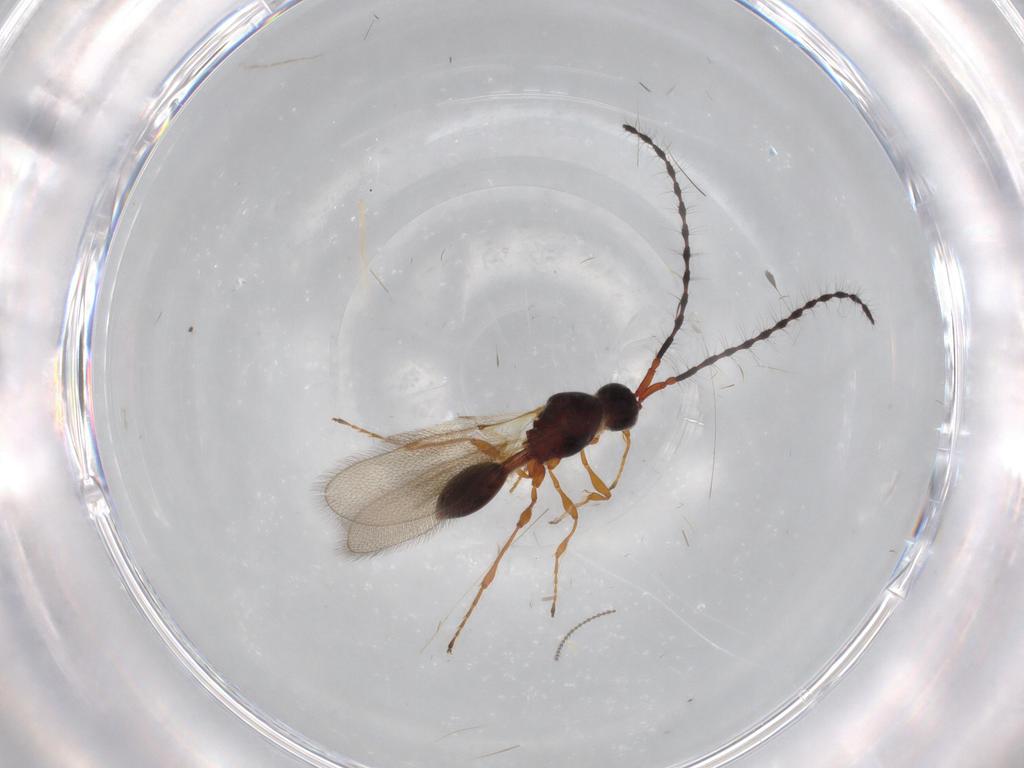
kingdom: Animalia
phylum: Arthropoda
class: Insecta
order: Hymenoptera
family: Diapriidae
